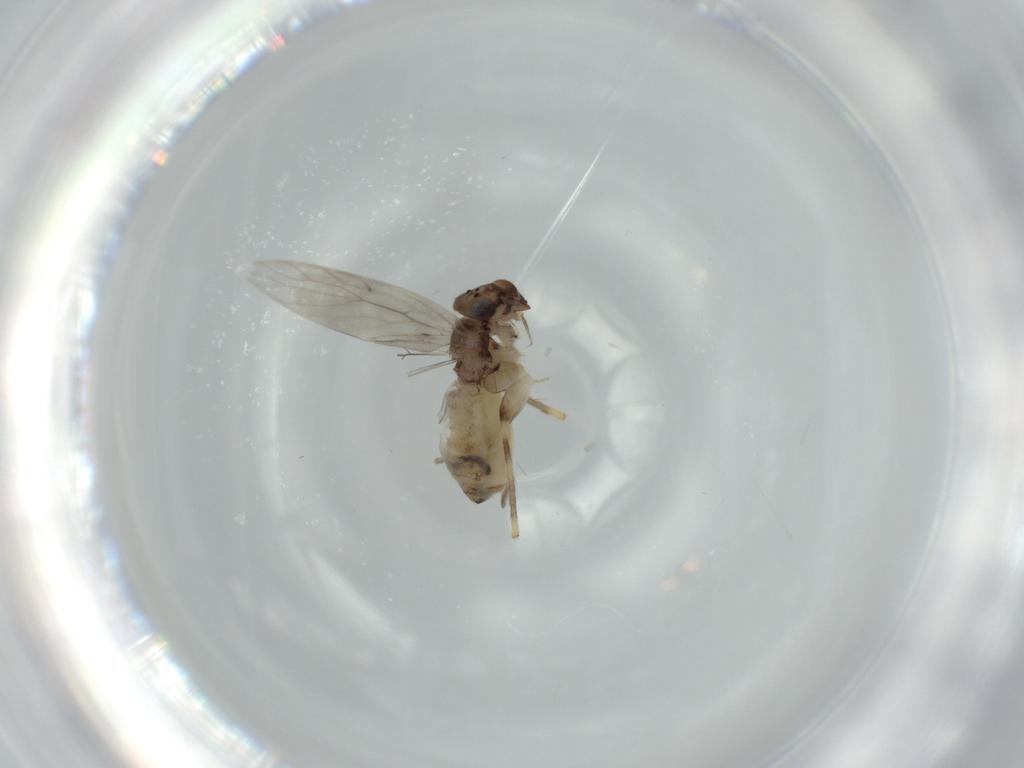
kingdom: Animalia
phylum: Arthropoda
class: Insecta
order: Psocodea
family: Lepidopsocidae
